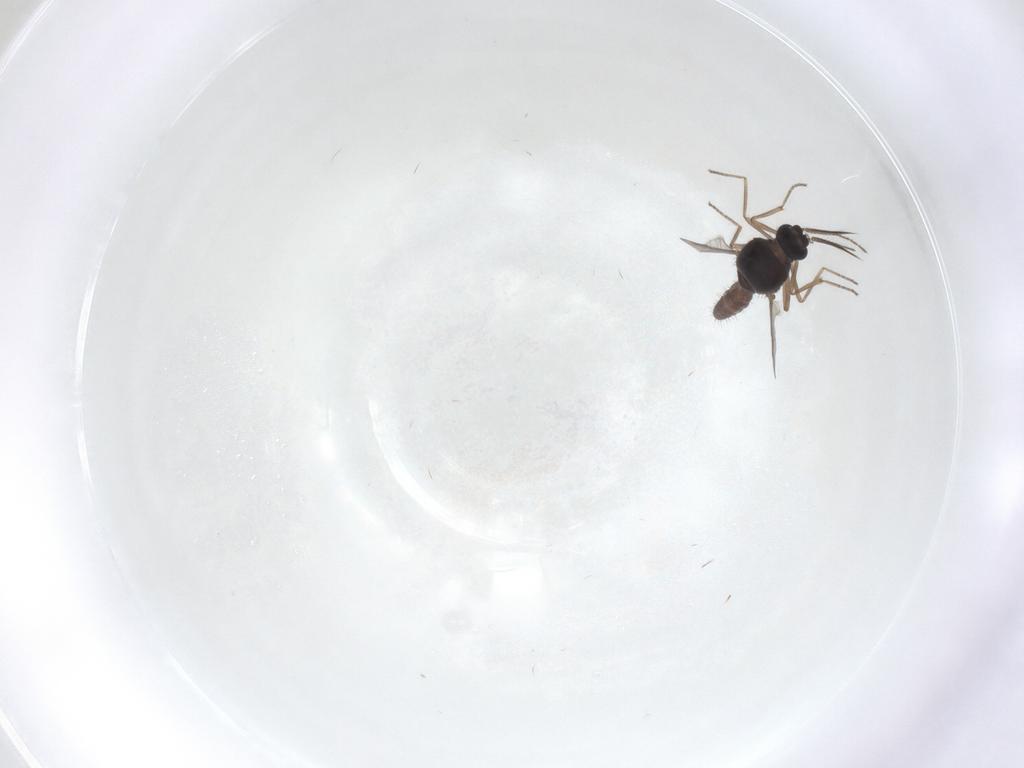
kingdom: Animalia
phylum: Arthropoda
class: Insecta
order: Diptera
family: Ceratopogonidae
